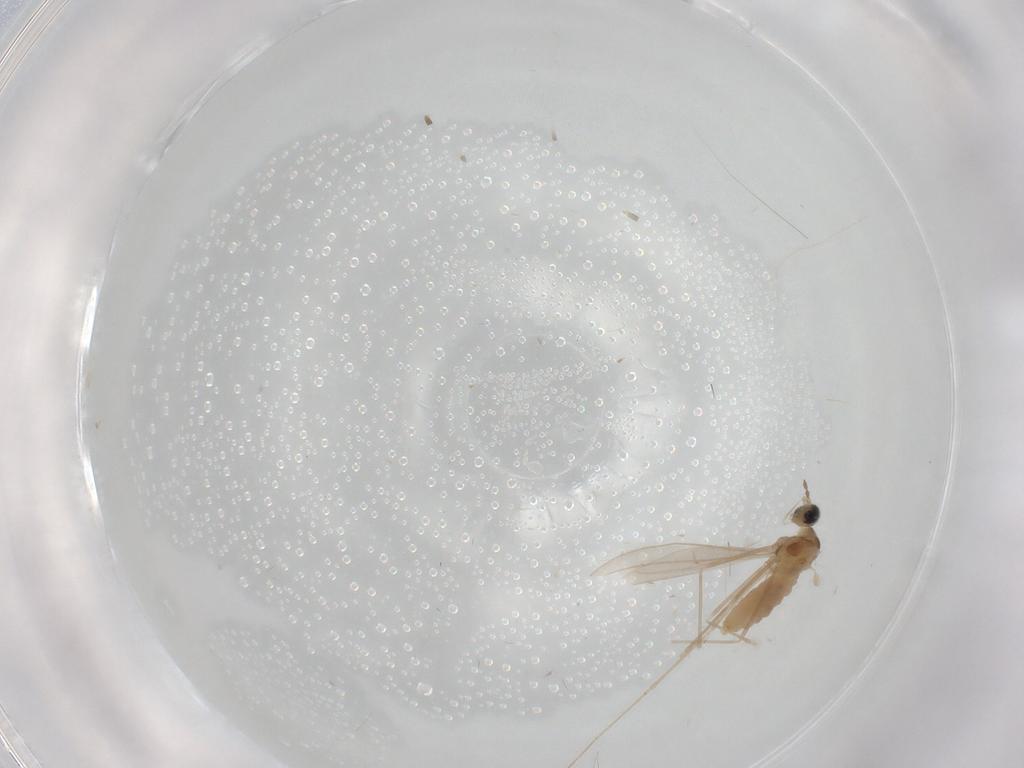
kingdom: Animalia
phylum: Arthropoda
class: Insecta
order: Diptera
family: Cecidomyiidae
